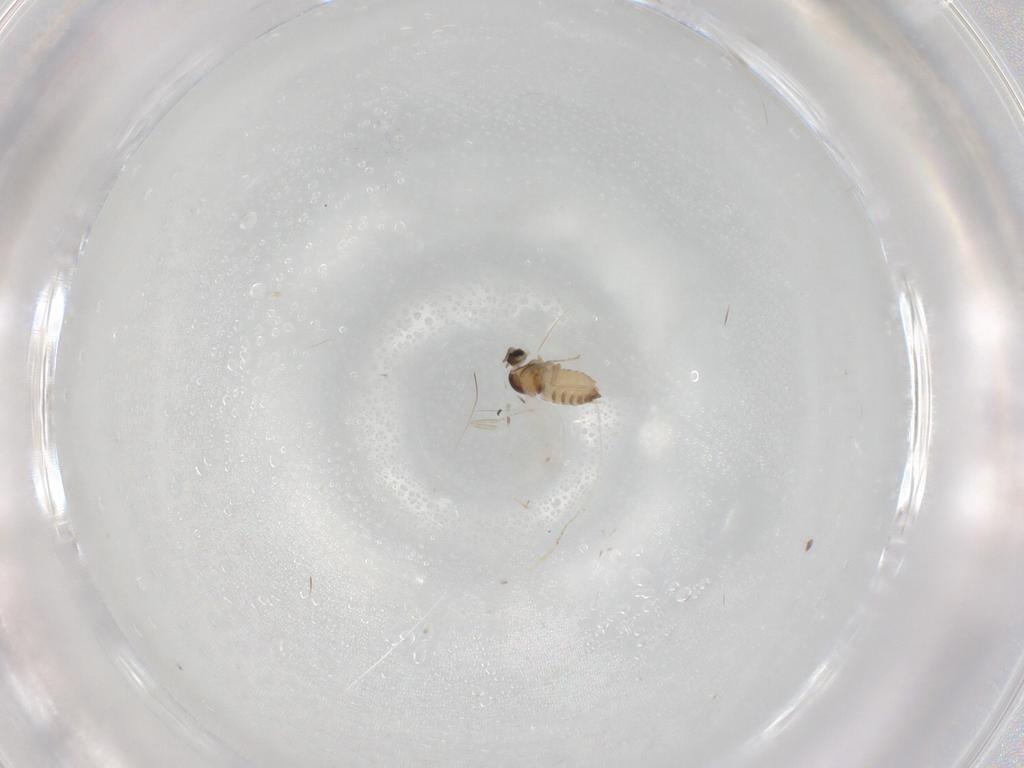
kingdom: Animalia
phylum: Arthropoda
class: Insecta
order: Diptera
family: Cecidomyiidae
